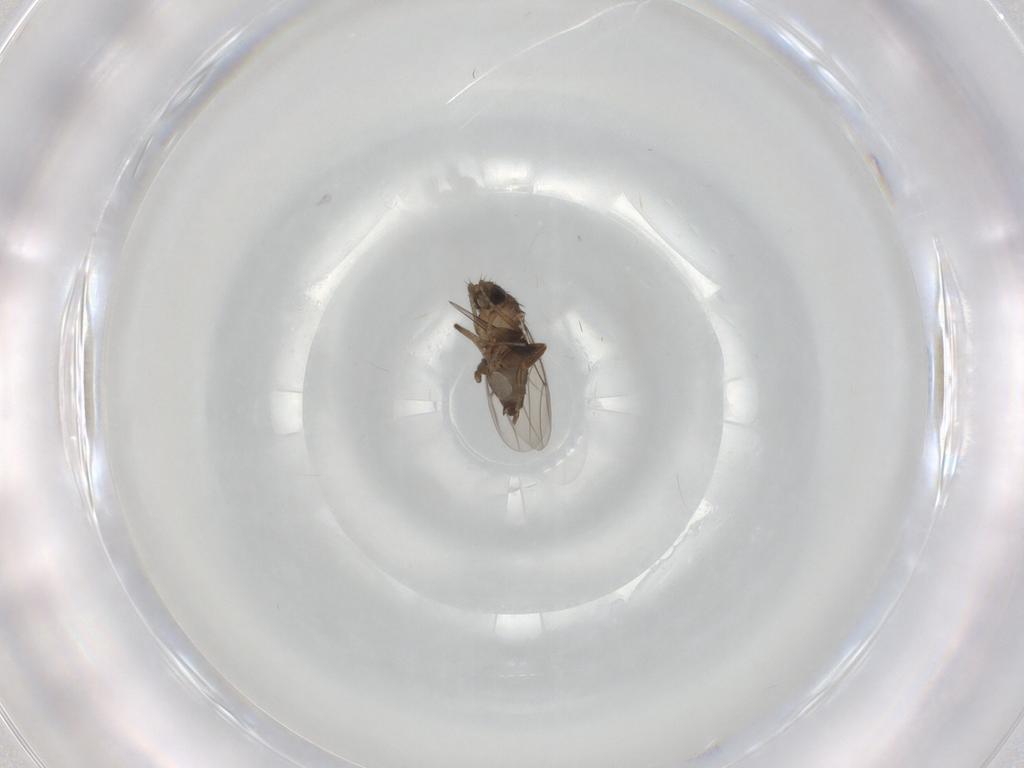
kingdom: Animalia
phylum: Arthropoda
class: Insecta
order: Diptera
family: Phoridae
